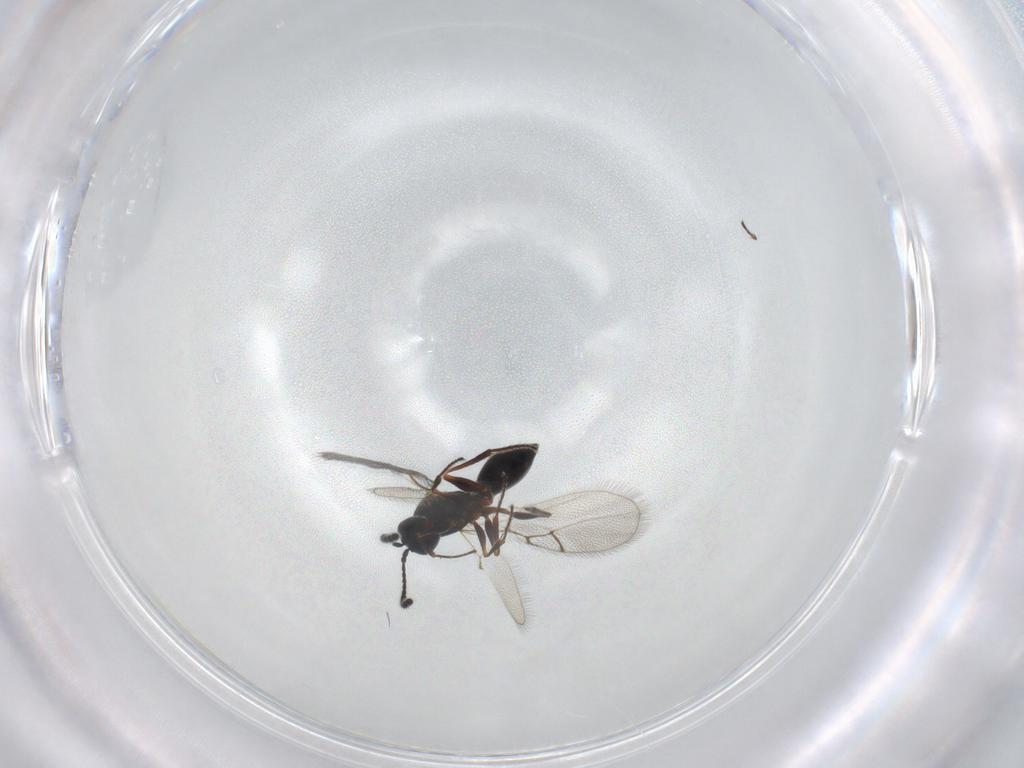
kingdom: Animalia
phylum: Arthropoda
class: Insecta
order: Hymenoptera
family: Figitidae
